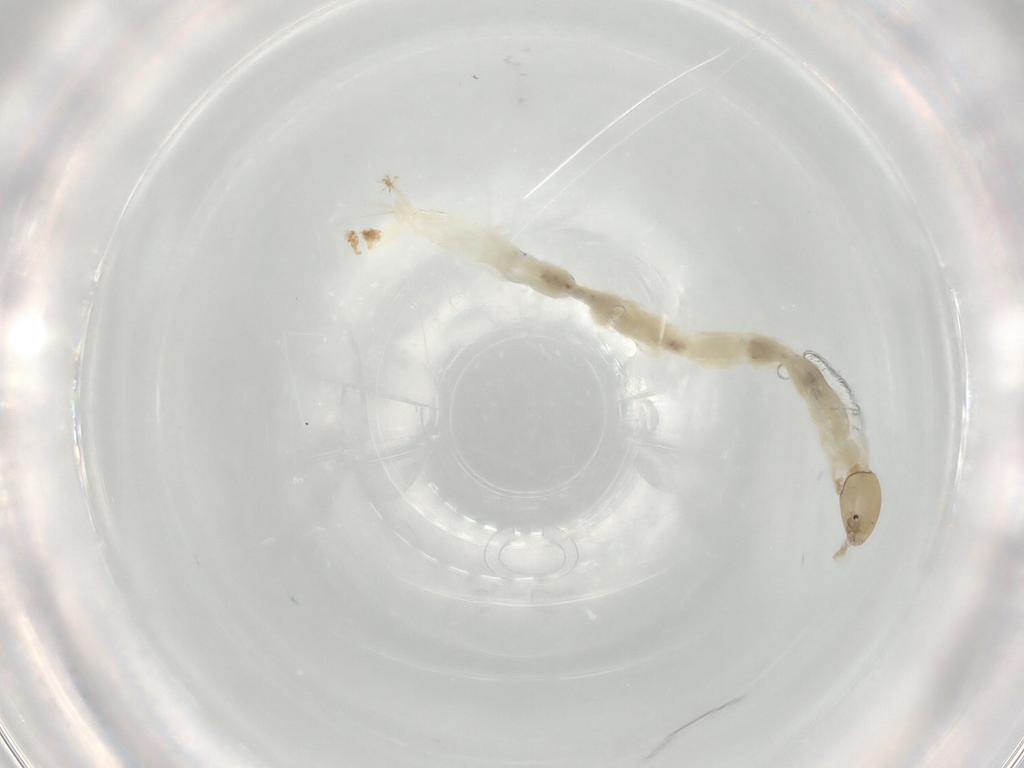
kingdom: Animalia
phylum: Arthropoda
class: Insecta
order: Diptera
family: Chironomidae
